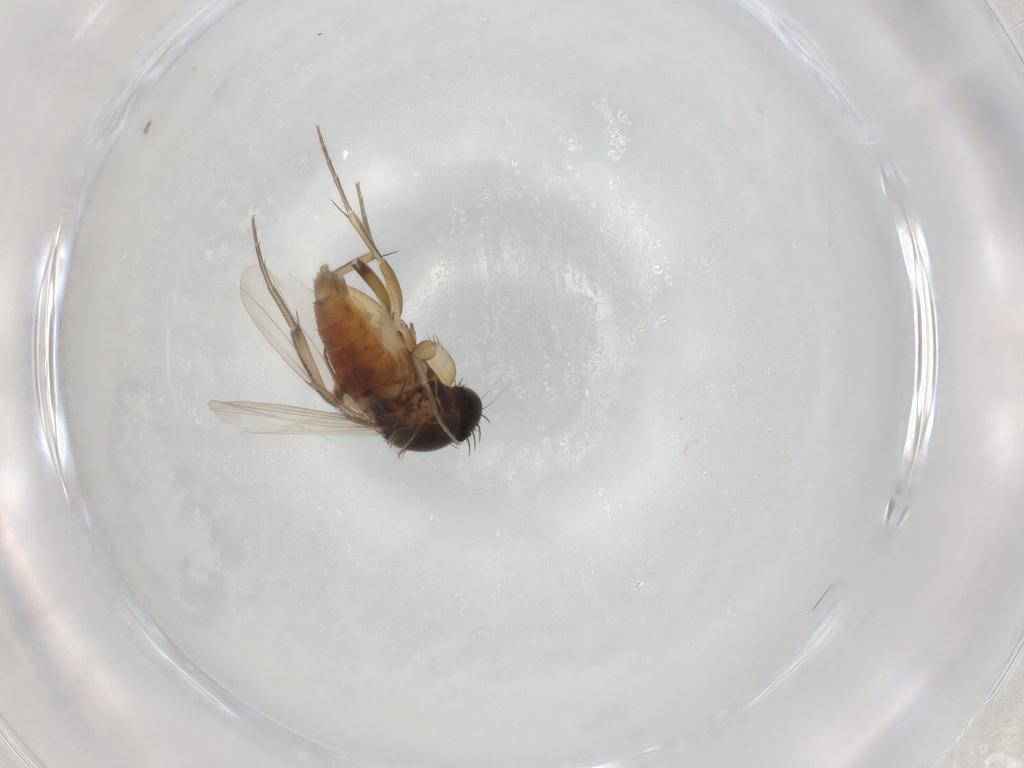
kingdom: Animalia
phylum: Arthropoda
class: Insecta
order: Diptera
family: Phoridae
